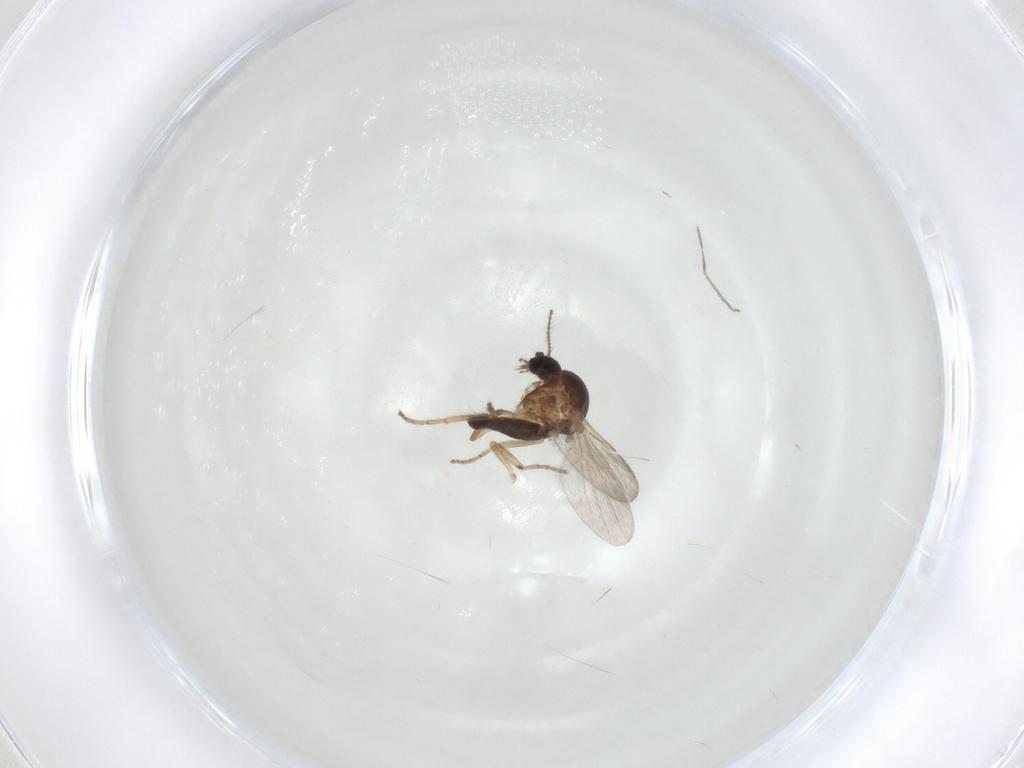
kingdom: Animalia
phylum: Arthropoda
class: Insecta
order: Diptera
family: Ceratopogonidae
